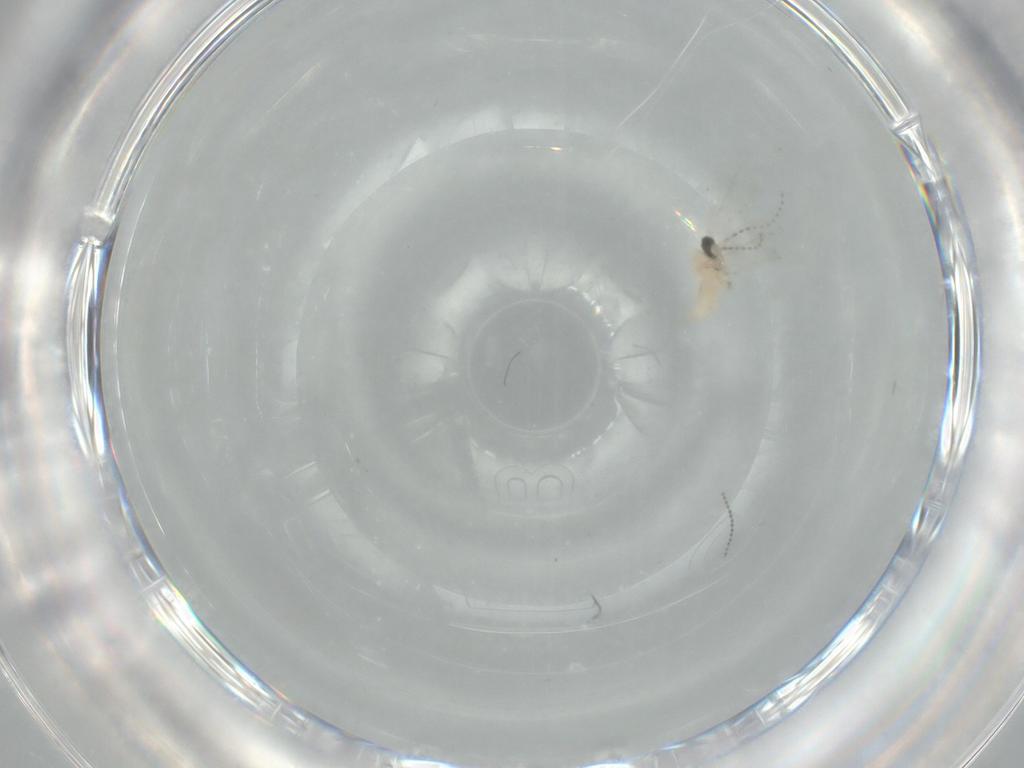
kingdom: Animalia
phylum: Arthropoda
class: Insecta
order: Diptera
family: Cecidomyiidae
